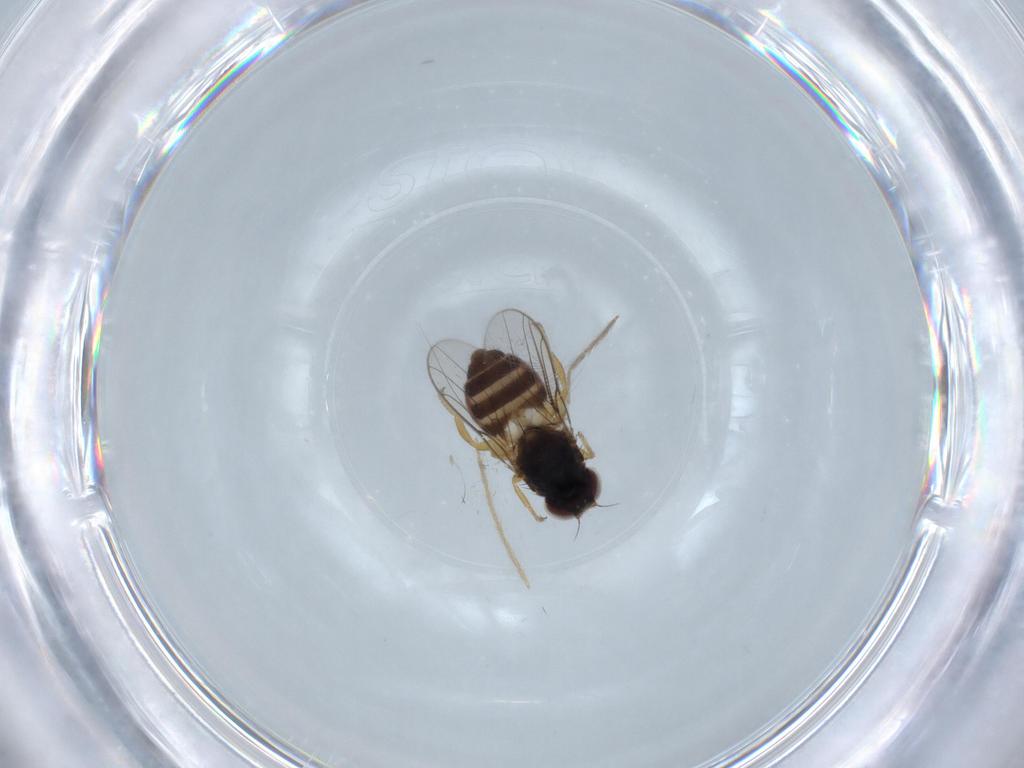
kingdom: Animalia
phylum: Arthropoda
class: Insecta
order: Diptera
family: Chloropidae
